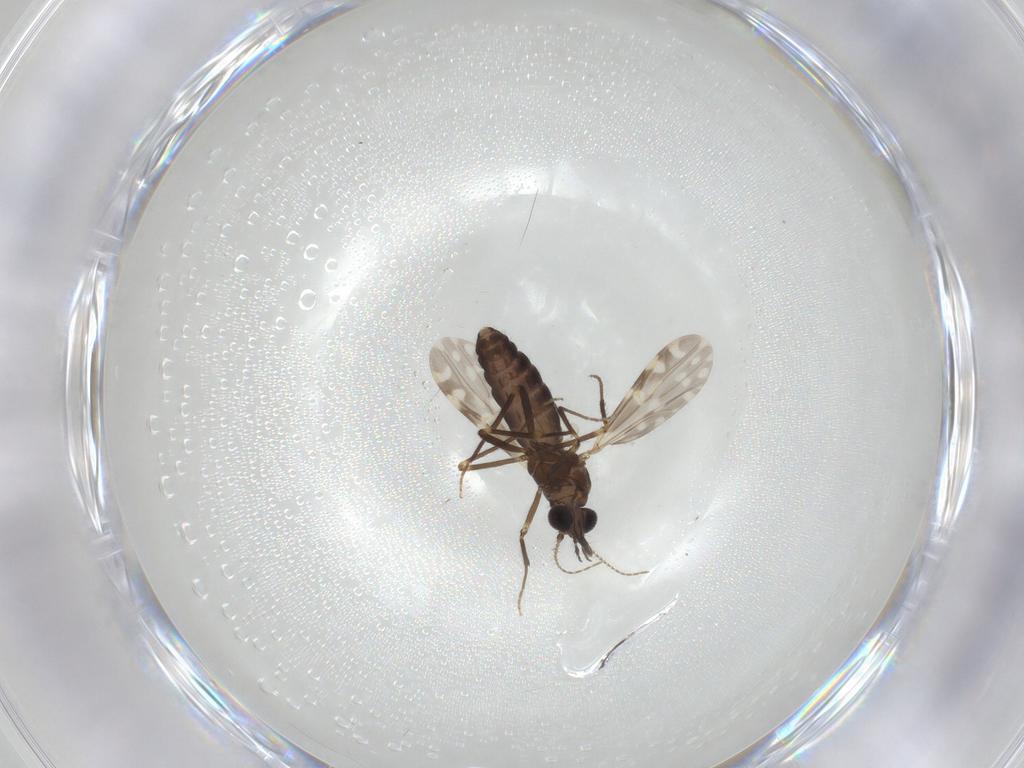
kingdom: Animalia
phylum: Arthropoda
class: Insecta
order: Diptera
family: Ceratopogonidae
